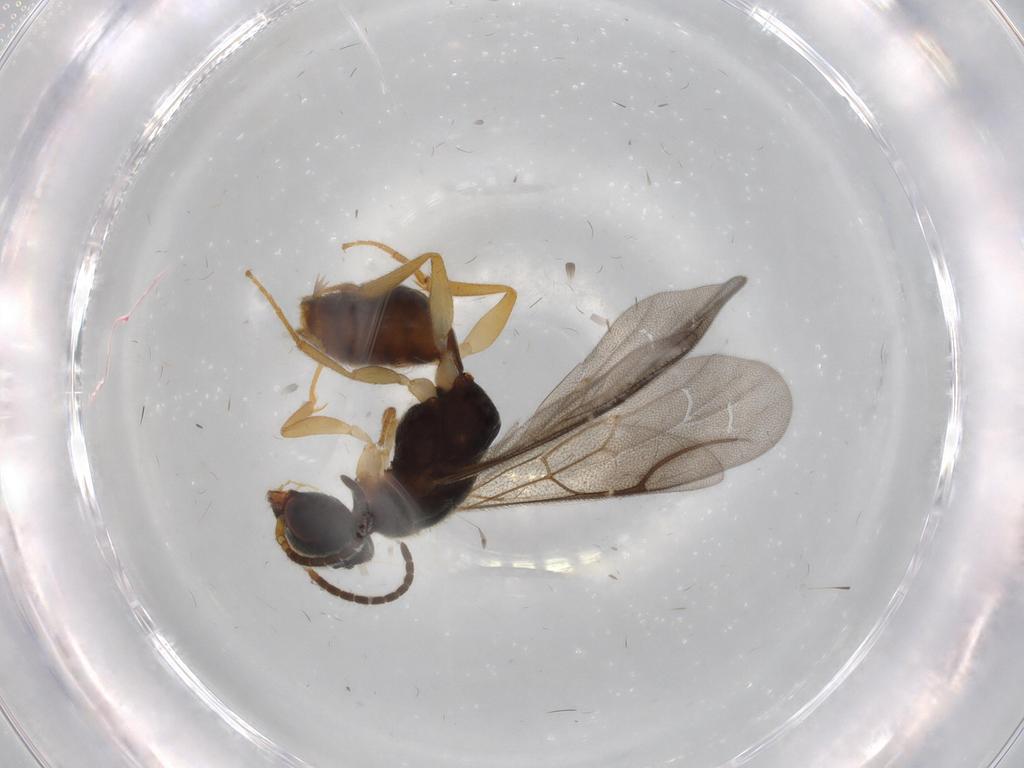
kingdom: Animalia
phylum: Arthropoda
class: Insecta
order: Hymenoptera
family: Bethylidae
